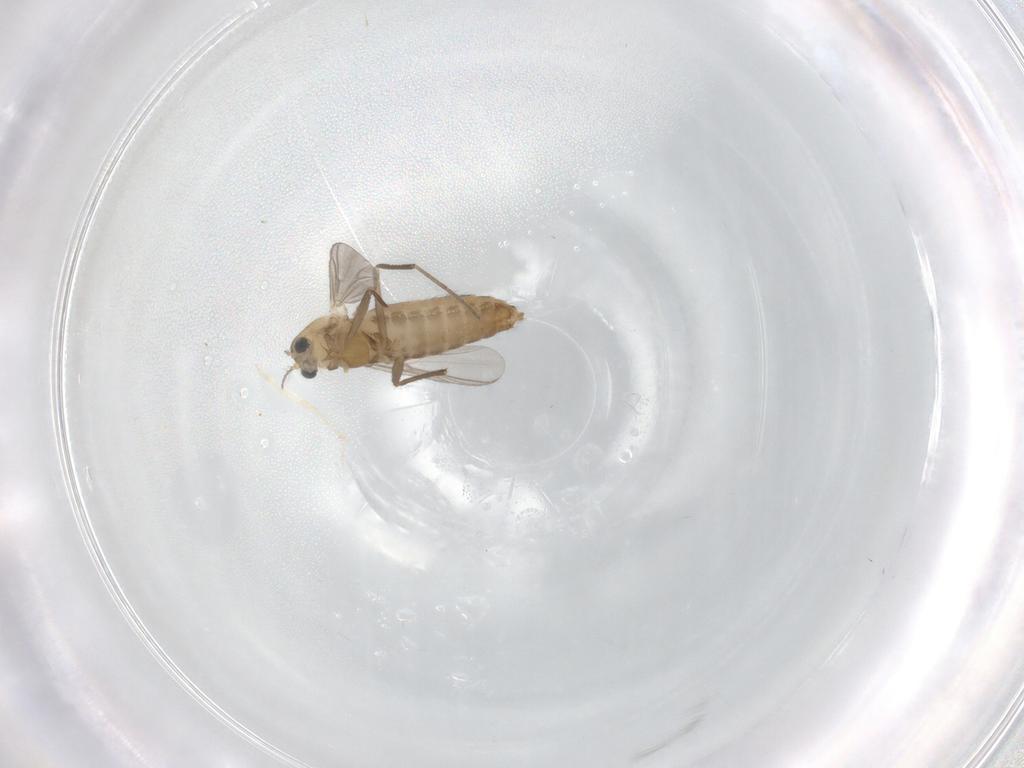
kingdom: Animalia
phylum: Arthropoda
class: Insecta
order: Diptera
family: Chironomidae
